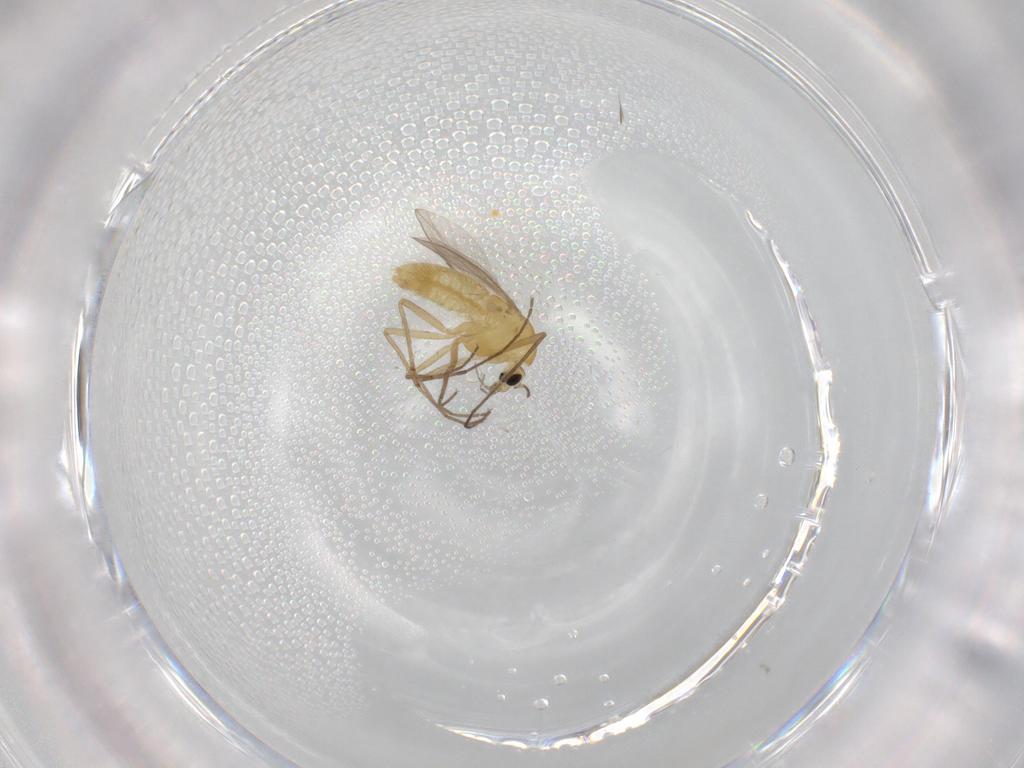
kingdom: Animalia
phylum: Arthropoda
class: Insecta
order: Diptera
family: Chironomidae
